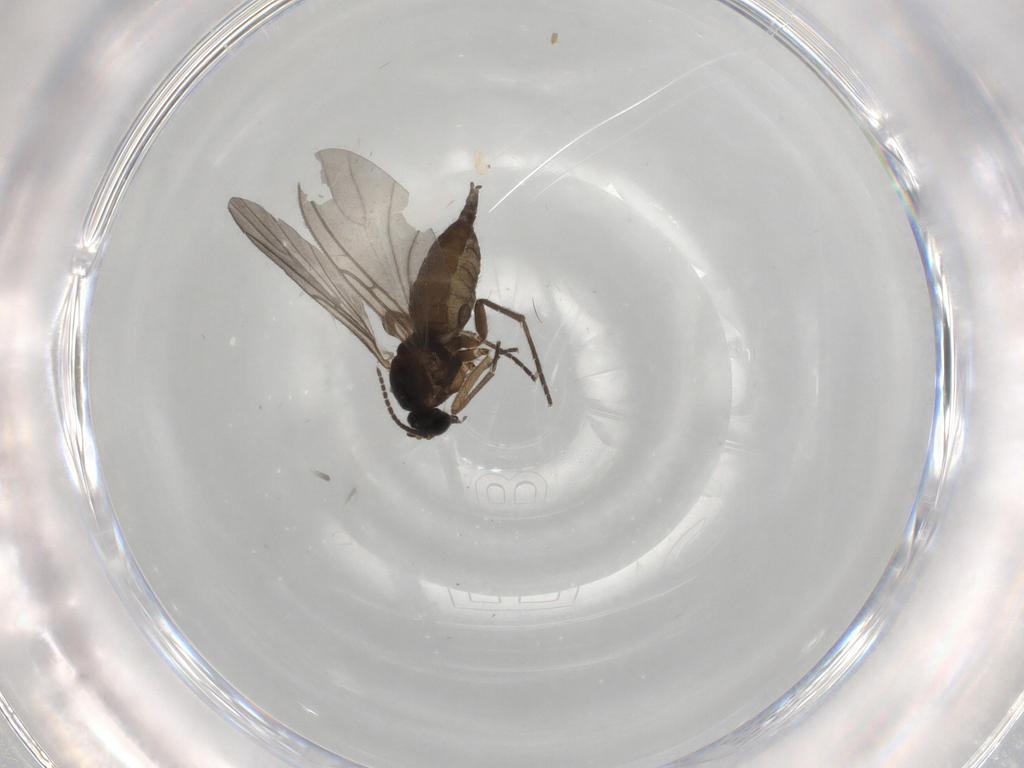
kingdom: Animalia
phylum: Arthropoda
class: Insecta
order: Diptera
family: Sciaridae
